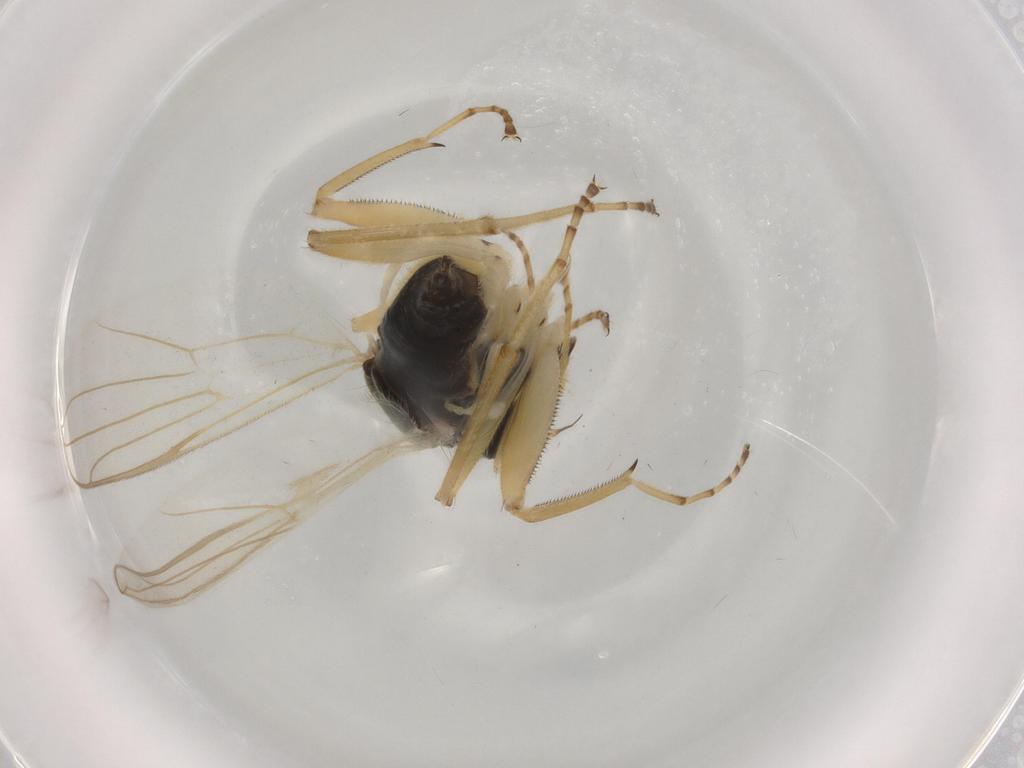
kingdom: Animalia
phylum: Arthropoda
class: Insecta
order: Diptera
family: Hybotidae
